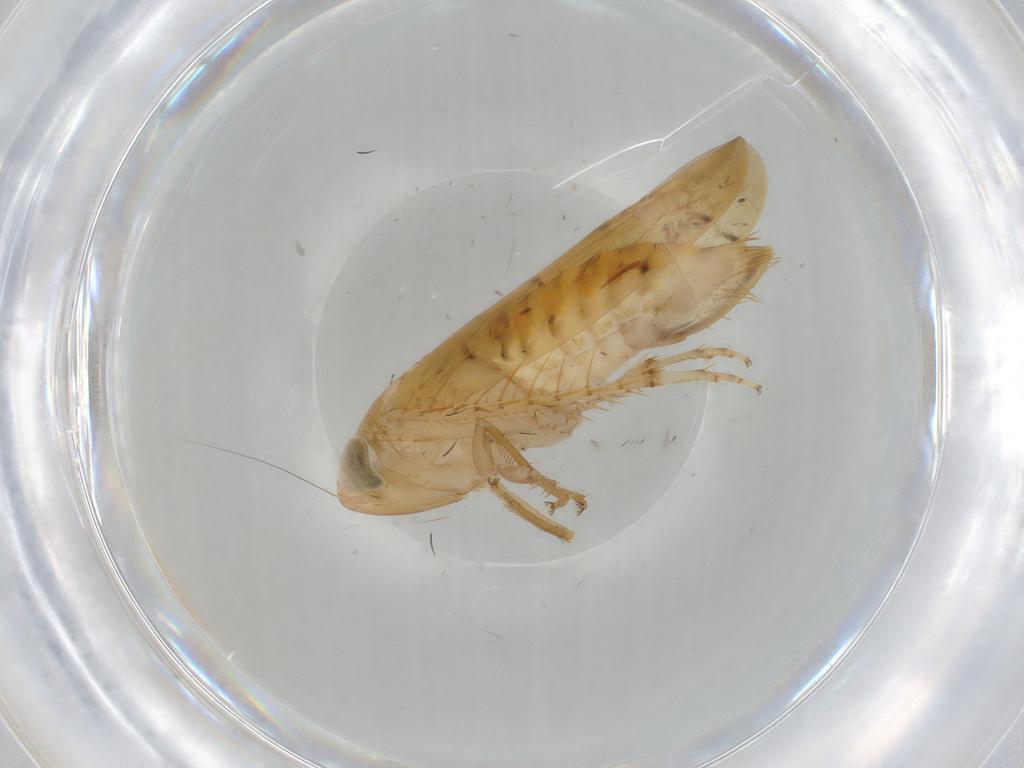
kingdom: Animalia
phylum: Arthropoda
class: Insecta
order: Hemiptera
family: Cicadellidae
